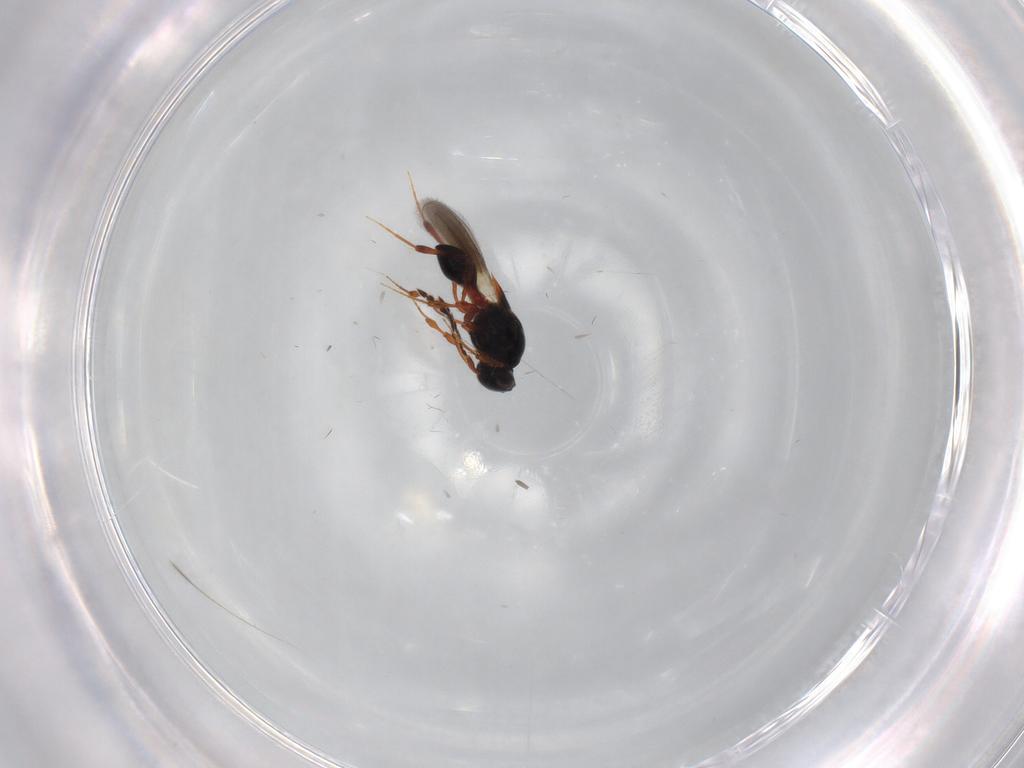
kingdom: Animalia
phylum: Arthropoda
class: Insecta
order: Hymenoptera
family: Platygastridae
